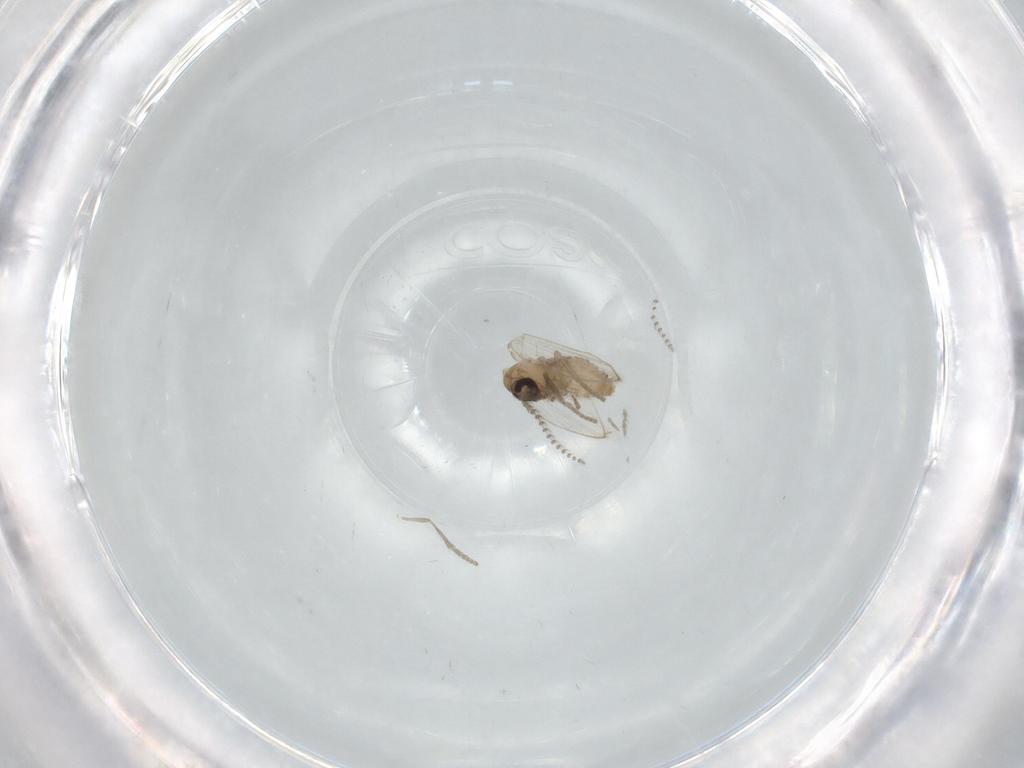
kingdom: Animalia
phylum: Arthropoda
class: Insecta
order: Diptera
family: Psychodidae
